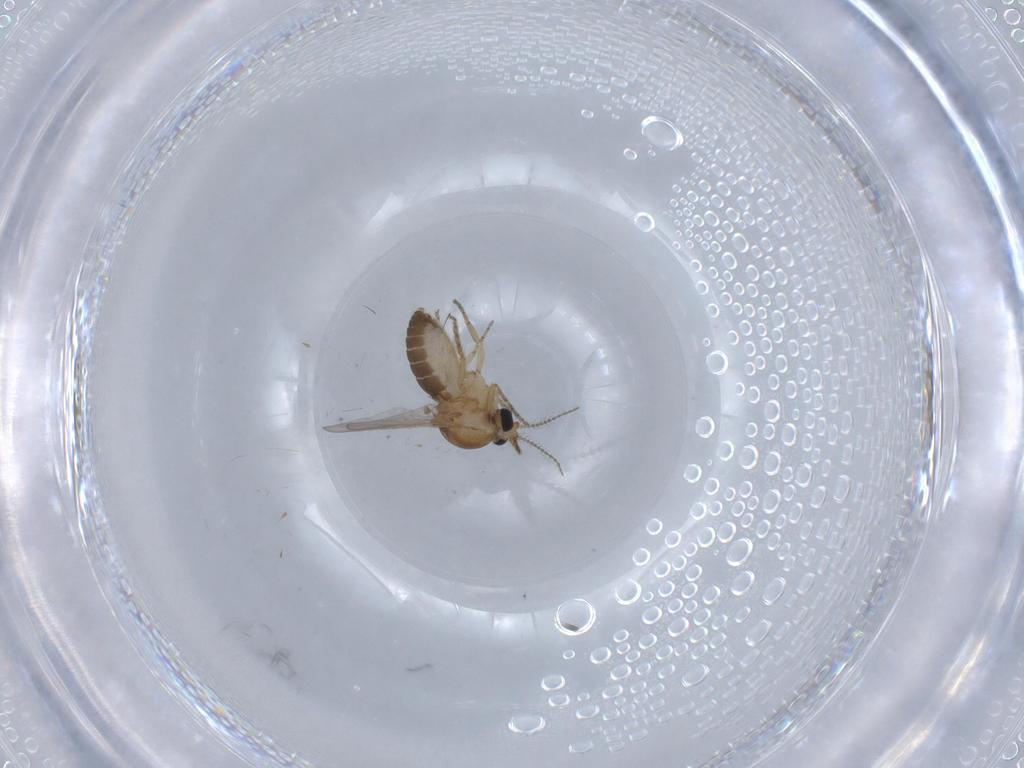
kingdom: Animalia
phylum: Arthropoda
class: Insecta
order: Diptera
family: Ceratopogonidae
